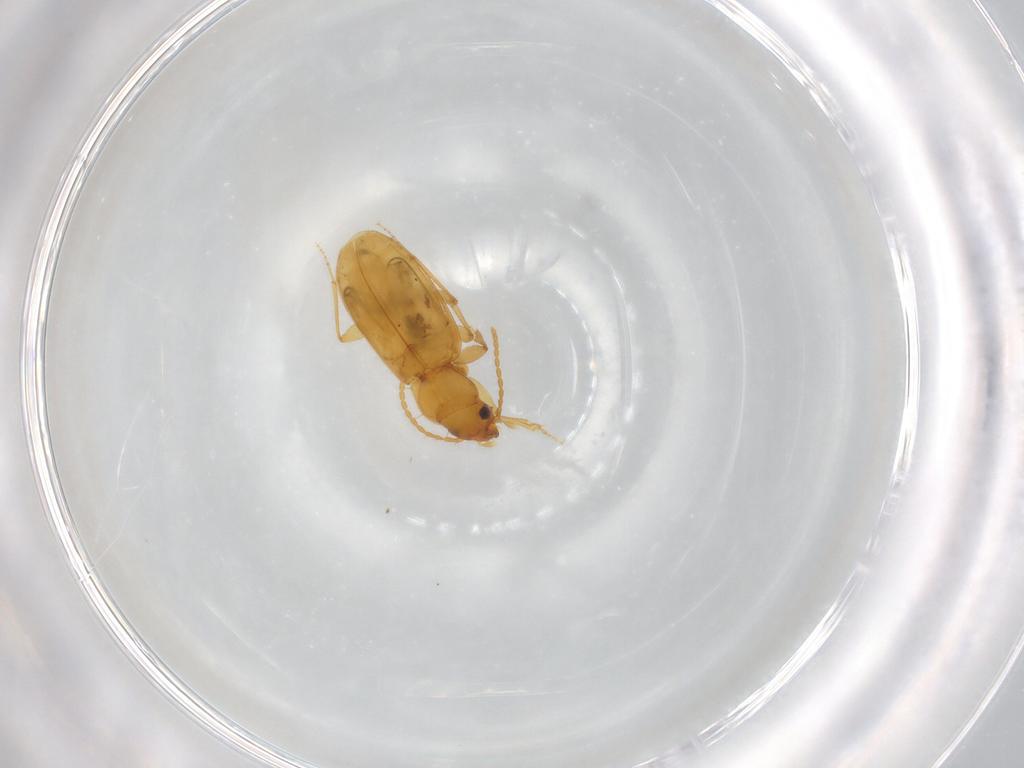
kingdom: Animalia
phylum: Arthropoda
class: Insecta
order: Coleoptera
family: Carabidae
